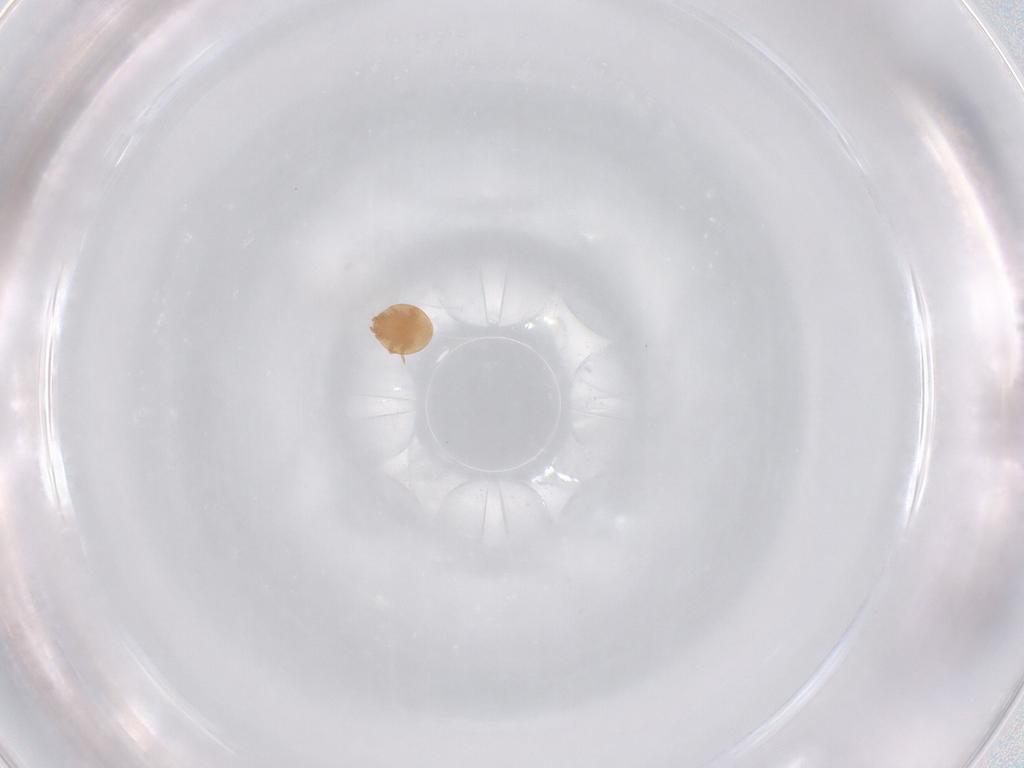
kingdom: Animalia
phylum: Arthropoda
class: Arachnida
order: Mesostigmata
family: Trematuridae
